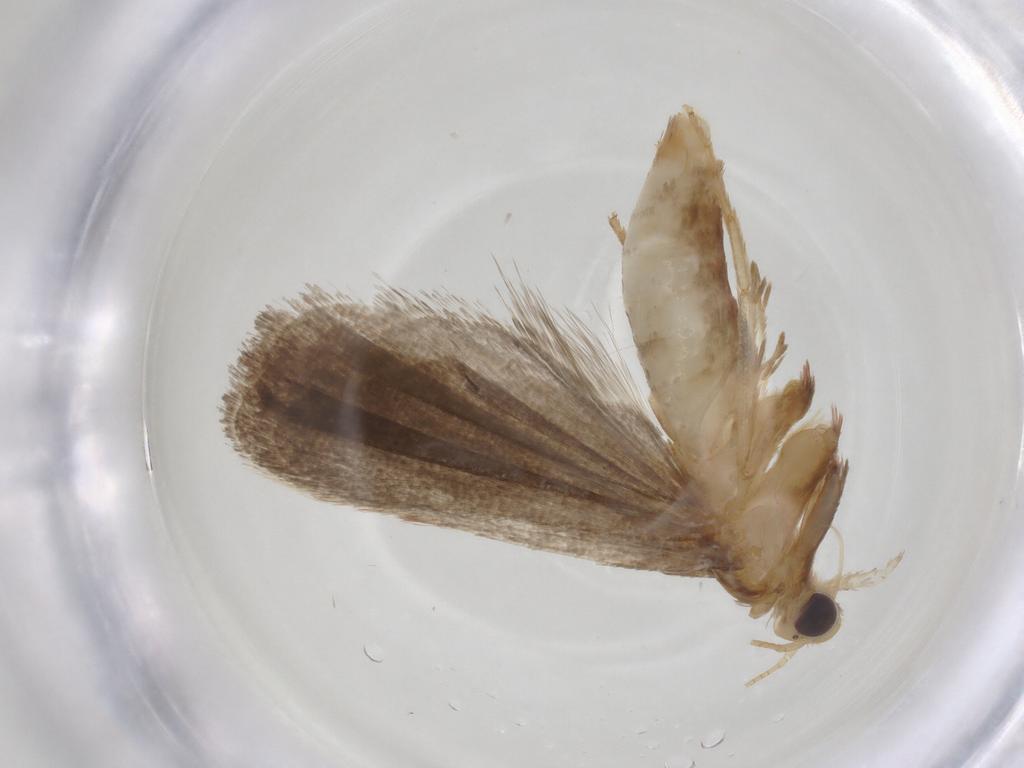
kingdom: Animalia
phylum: Arthropoda
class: Insecta
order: Lepidoptera
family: Pyralidae
